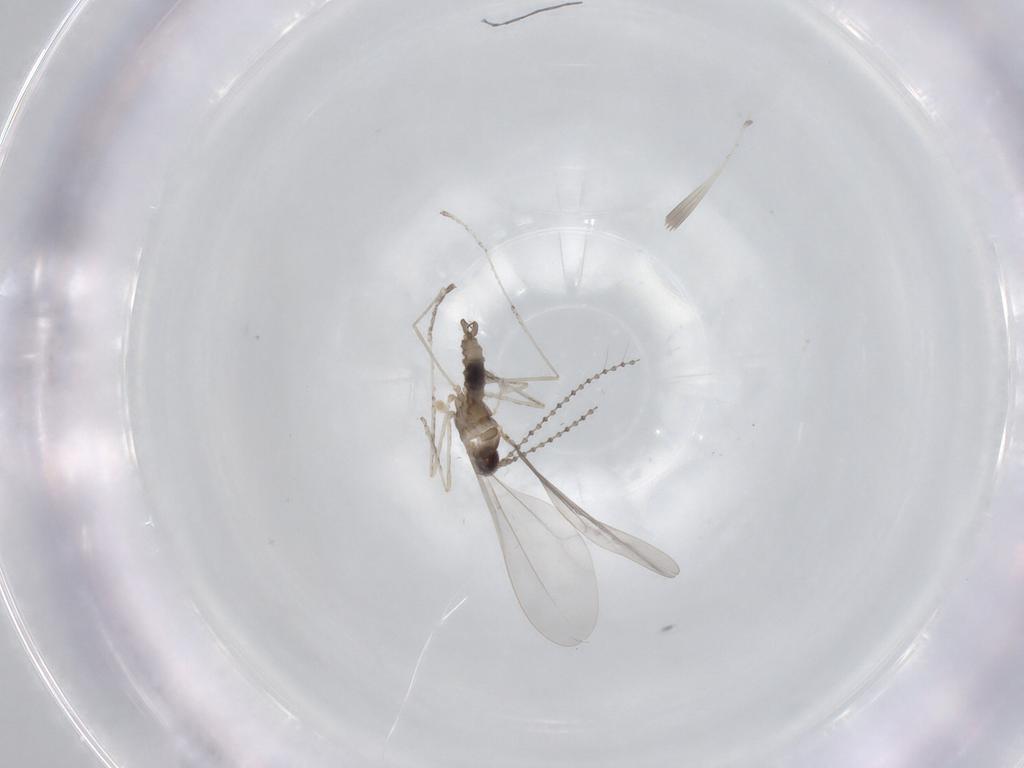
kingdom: Animalia
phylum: Arthropoda
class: Insecta
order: Diptera
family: Cecidomyiidae
